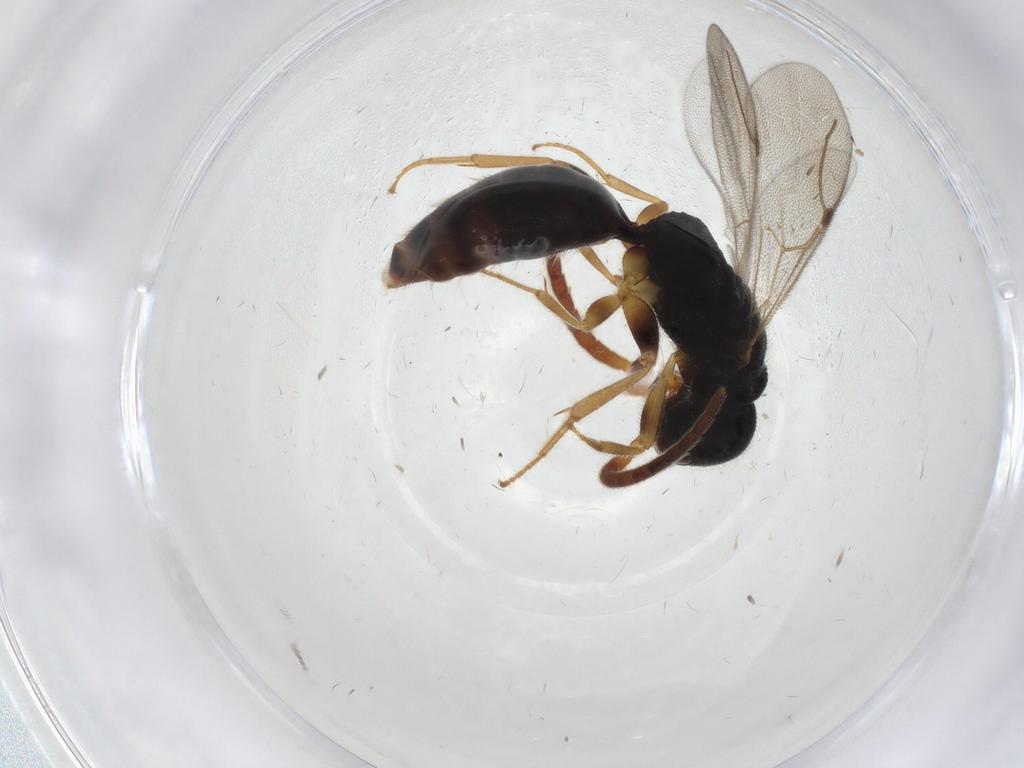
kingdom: Animalia
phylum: Arthropoda
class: Insecta
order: Hymenoptera
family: Bethylidae
